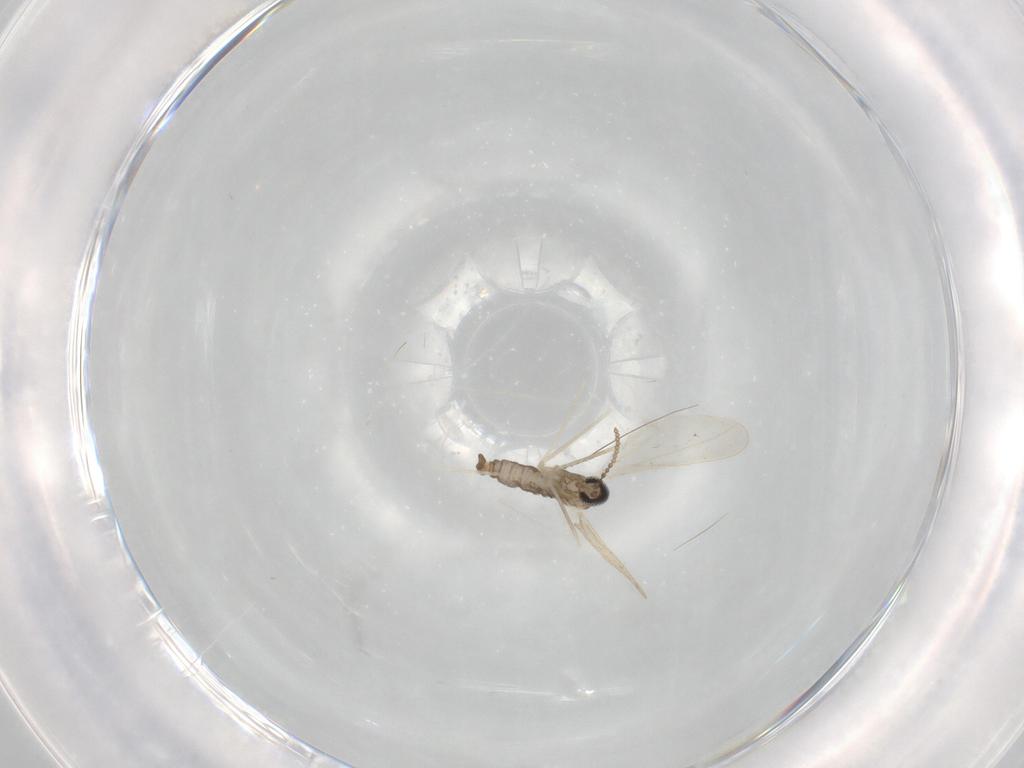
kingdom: Animalia
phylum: Arthropoda
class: Insecta
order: Diptera
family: Cecidomyiidae
